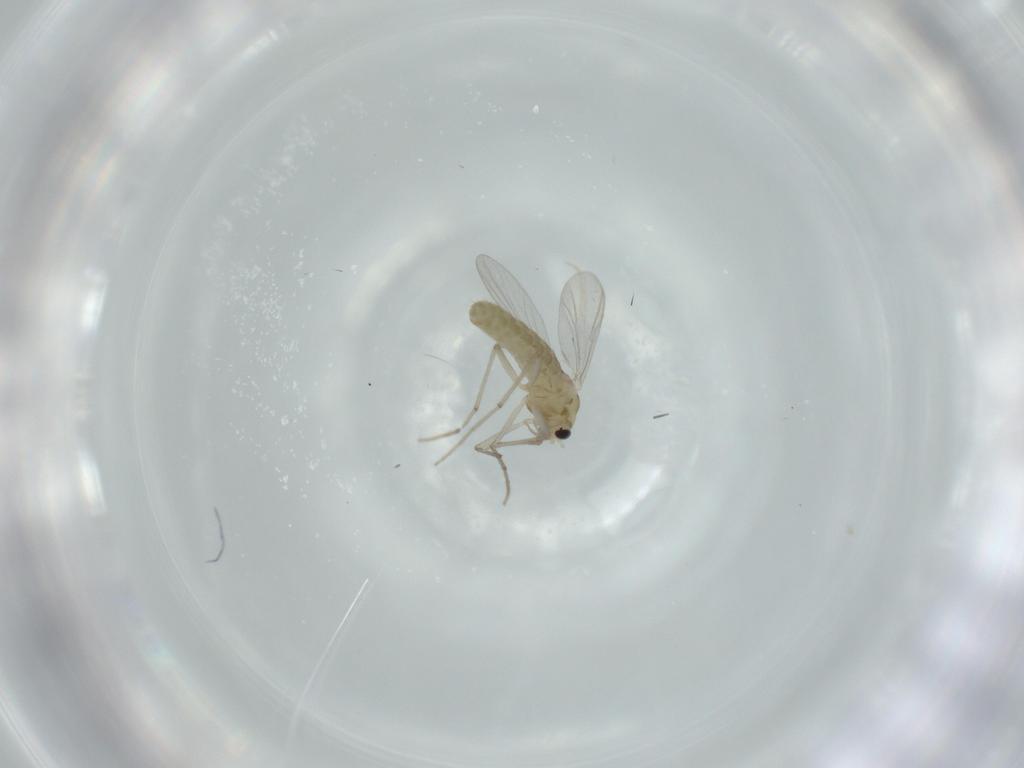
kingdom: Animalia
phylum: Arthropoda
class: Insecta
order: Diptera
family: Chironomidae
